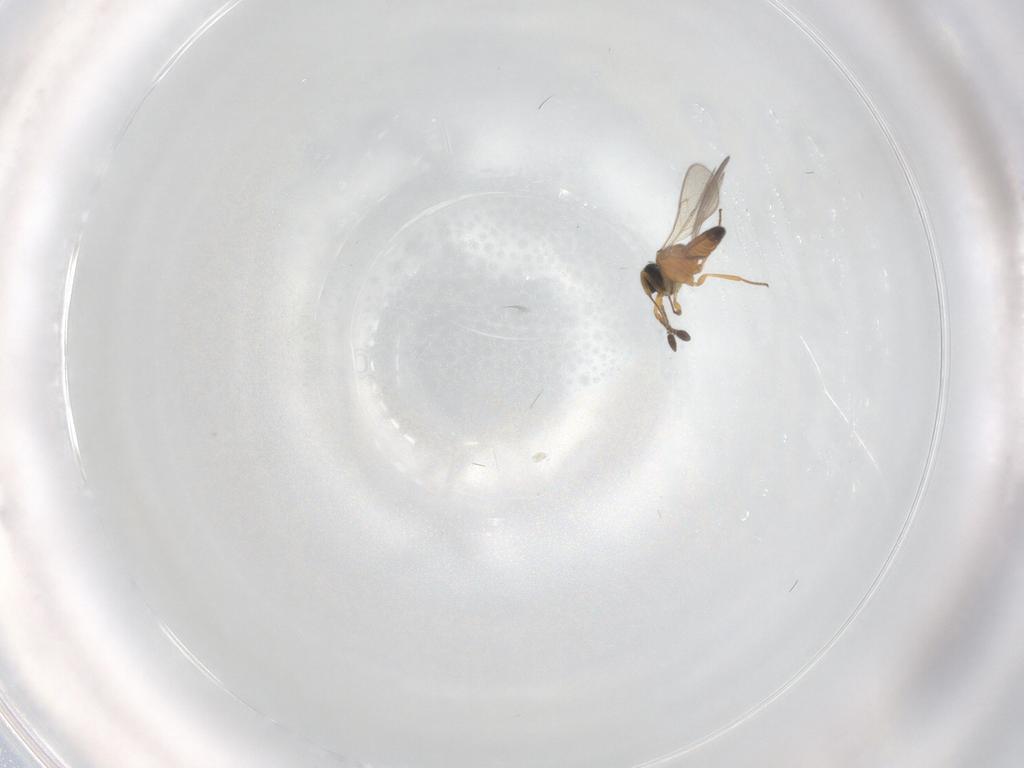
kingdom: Animalia
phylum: Arthropoda
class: Insecta
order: Hymenoptera
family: Scelionidae
